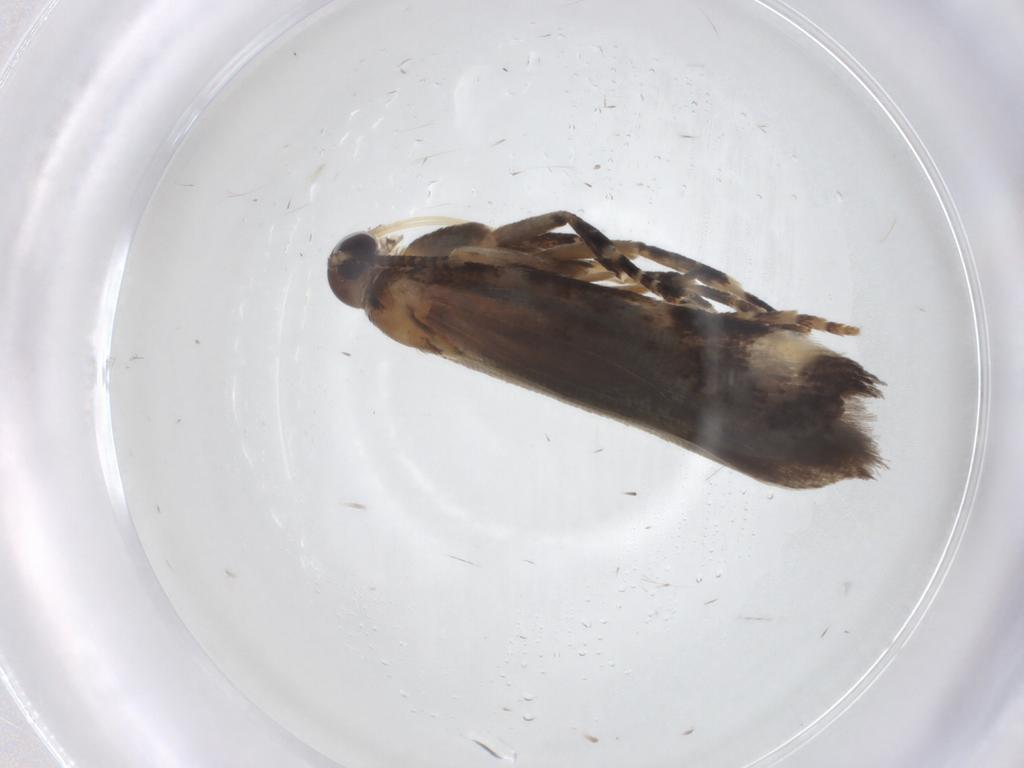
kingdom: Animalia
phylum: Arthropoda
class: Insecta
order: Lepidoptera
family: Gelechiidae
